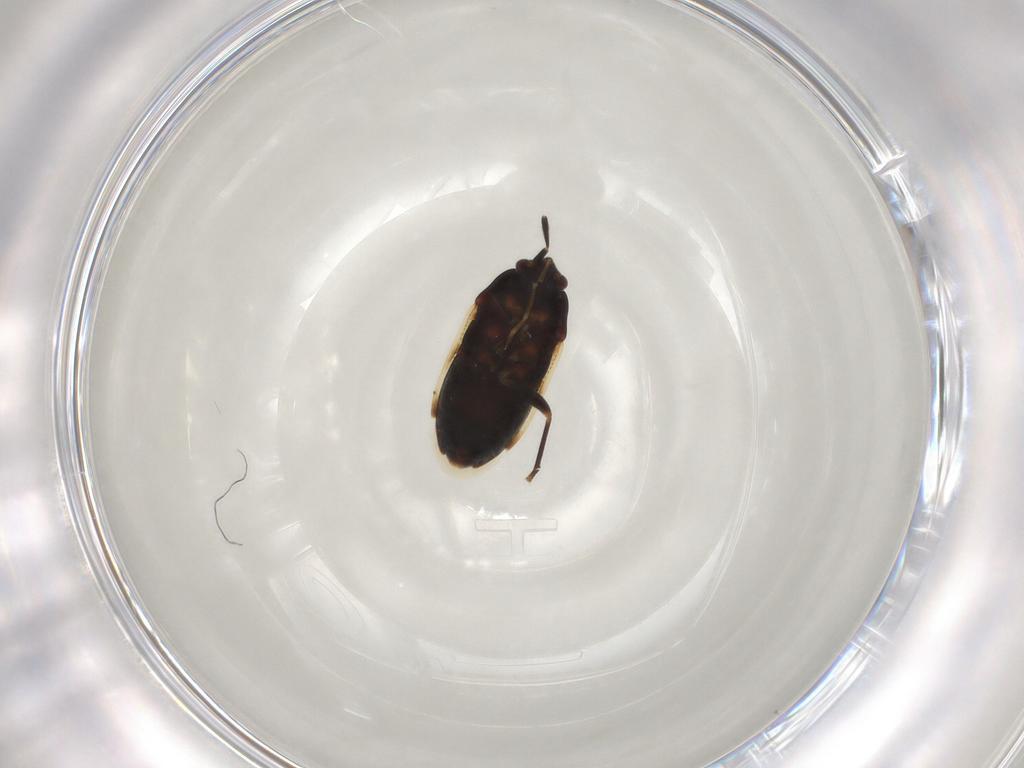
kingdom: Animalia
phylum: Arthropoda
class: Insecta
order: Hemiptera
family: Rhyparochromidae
